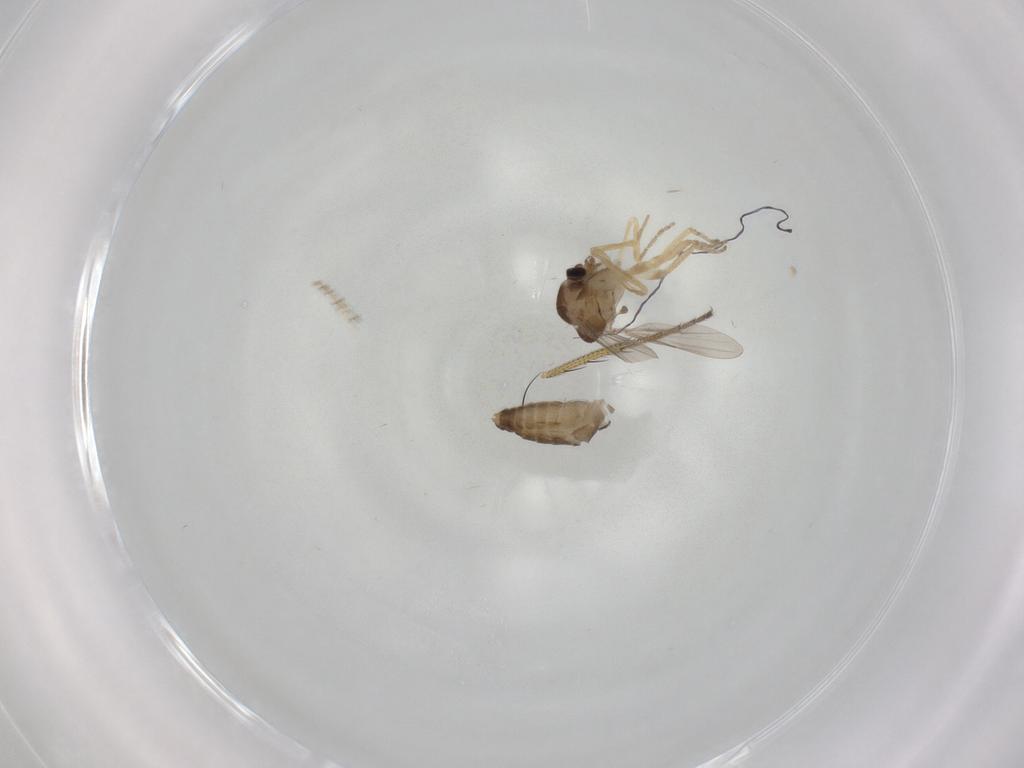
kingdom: Animalia
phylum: Arthropoda
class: Insecta
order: Diptera
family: Ceratopogonidae
